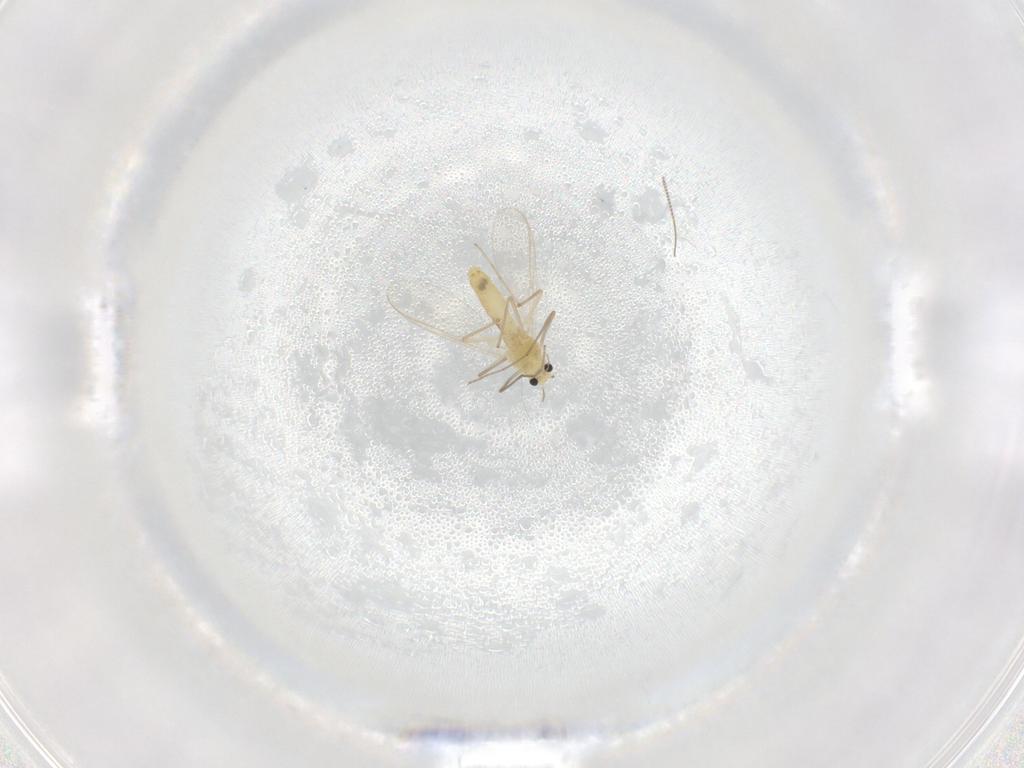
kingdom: Animalia
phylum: Arthropoda
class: Insecta
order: Diptera
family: Chironomidae
